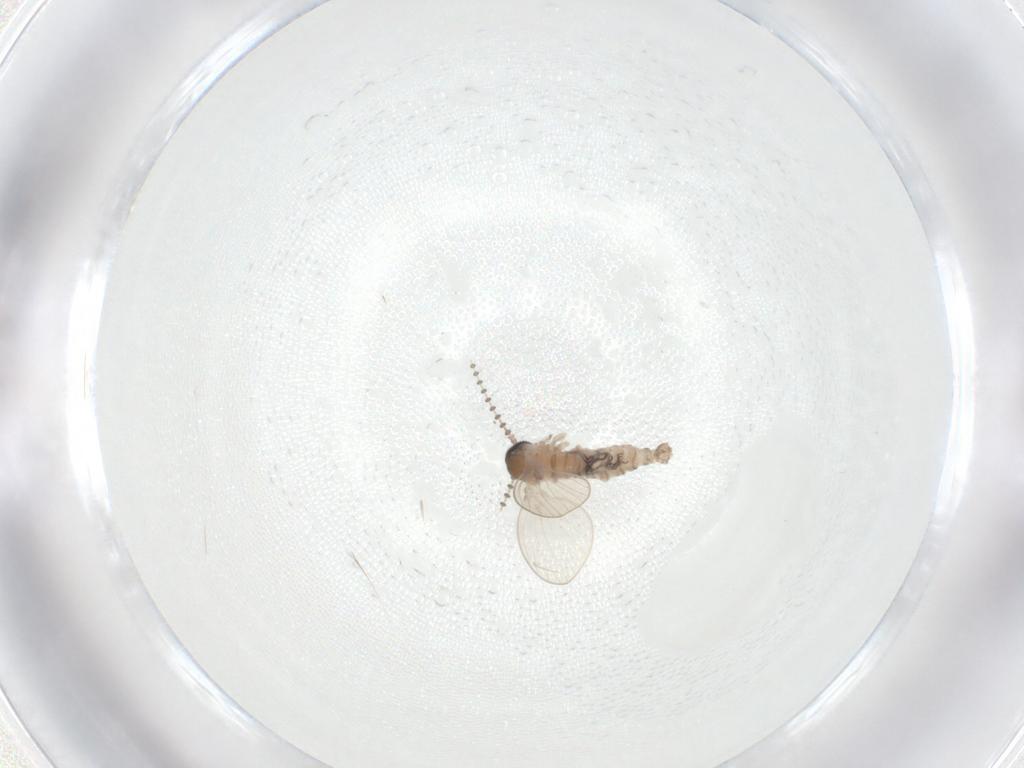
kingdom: Animalia
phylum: Arthropoda
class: Insecta
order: Diptera
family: Psychodidae
